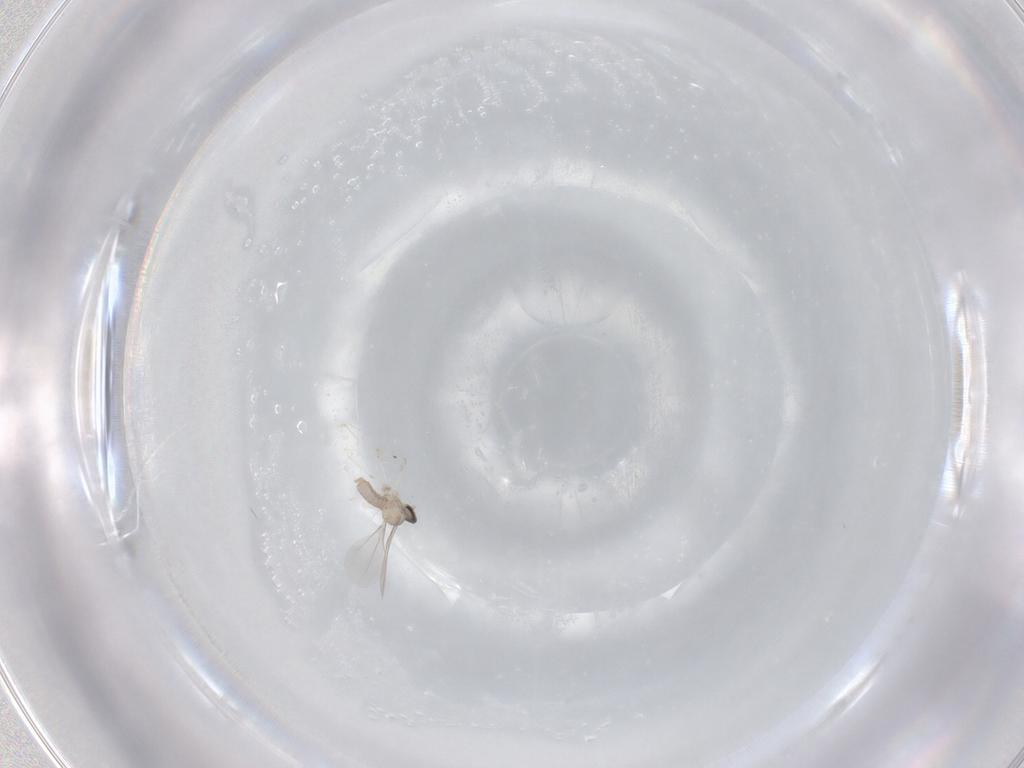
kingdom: Animalia
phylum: Arthropoda
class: Insecta
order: Diptera
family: Cecidomyiidae
